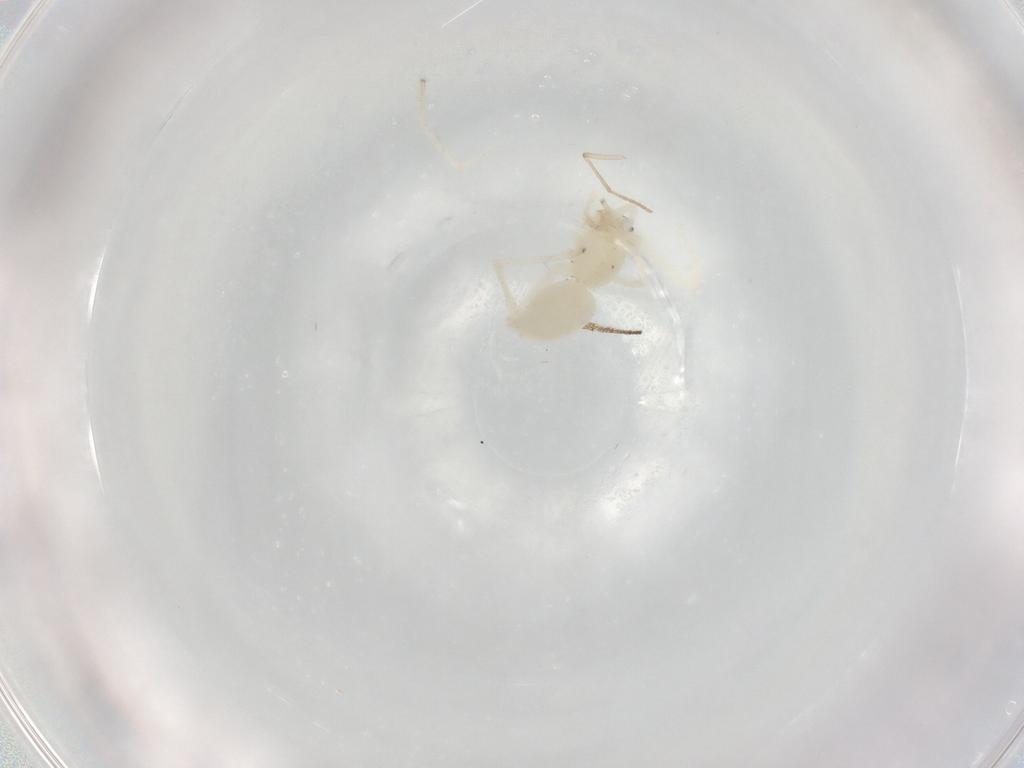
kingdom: Animalia
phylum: Arthropoda
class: Arachnida
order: Araneae
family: Anyphaenidae
